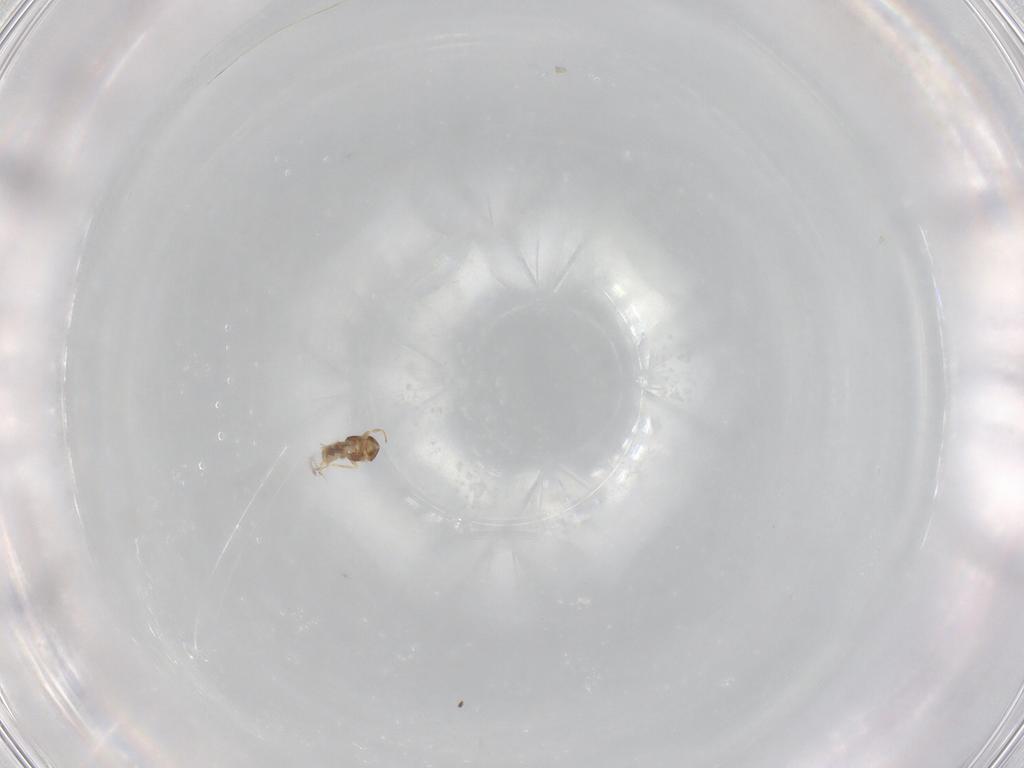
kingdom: Animalia
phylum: Arthropoda
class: Insecta
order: Diptera
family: Muscidae
